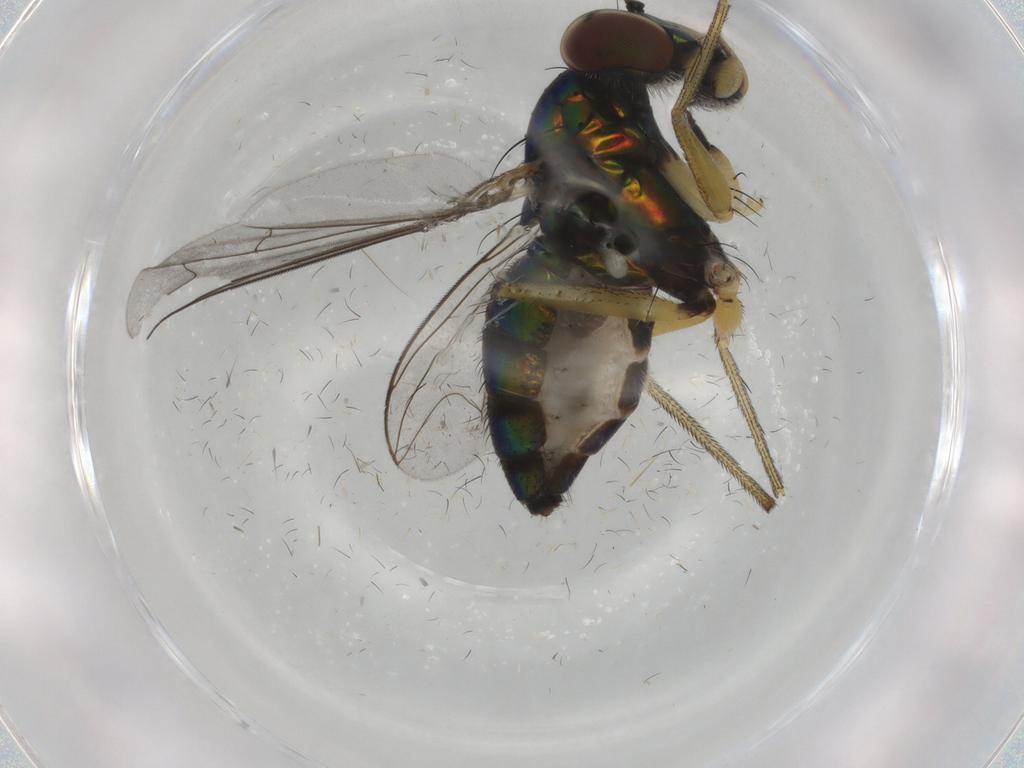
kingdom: Animalia
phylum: Arthropoda
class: Insecta
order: Diptera
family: Dolichopodidae
